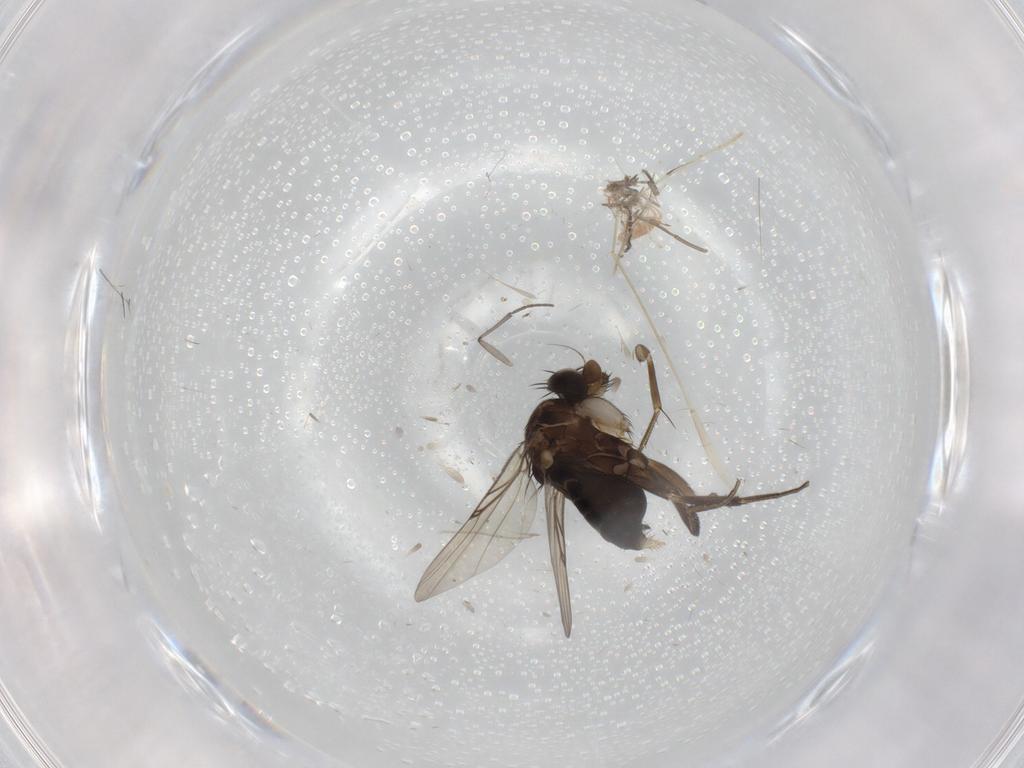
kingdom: Animalia
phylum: Arthropoda
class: Insecta
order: Diptera
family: Phoridae
